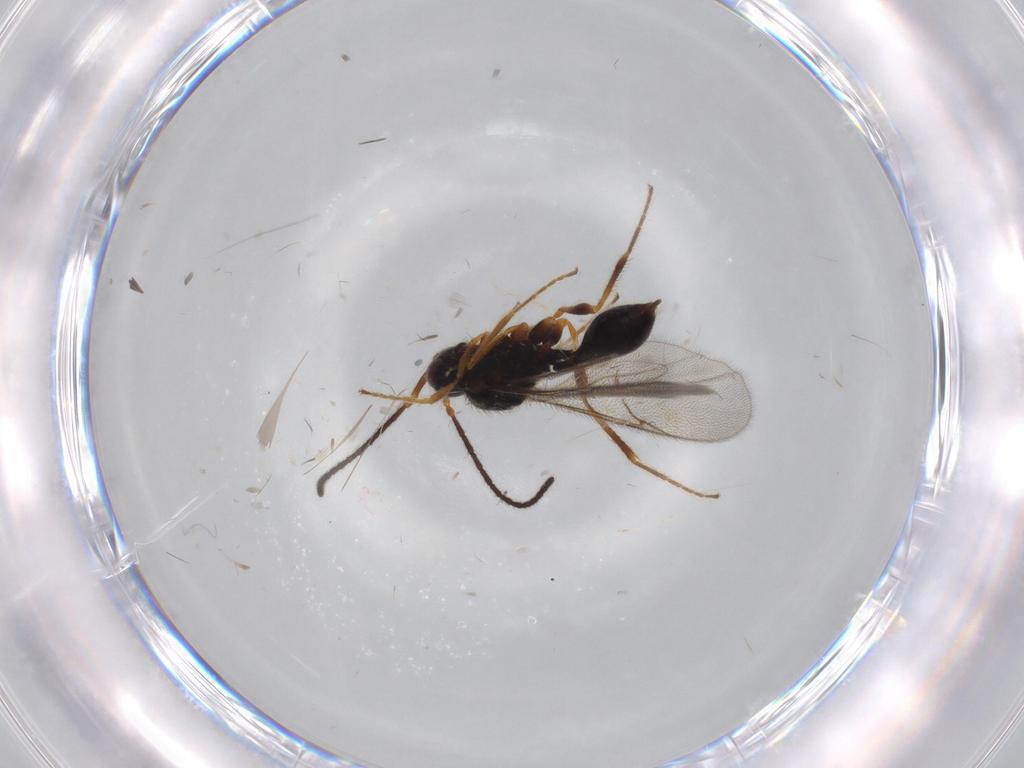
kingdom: Animalia
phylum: Arthropoda
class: Insecta
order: Hymenoptera
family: Diapriidae
